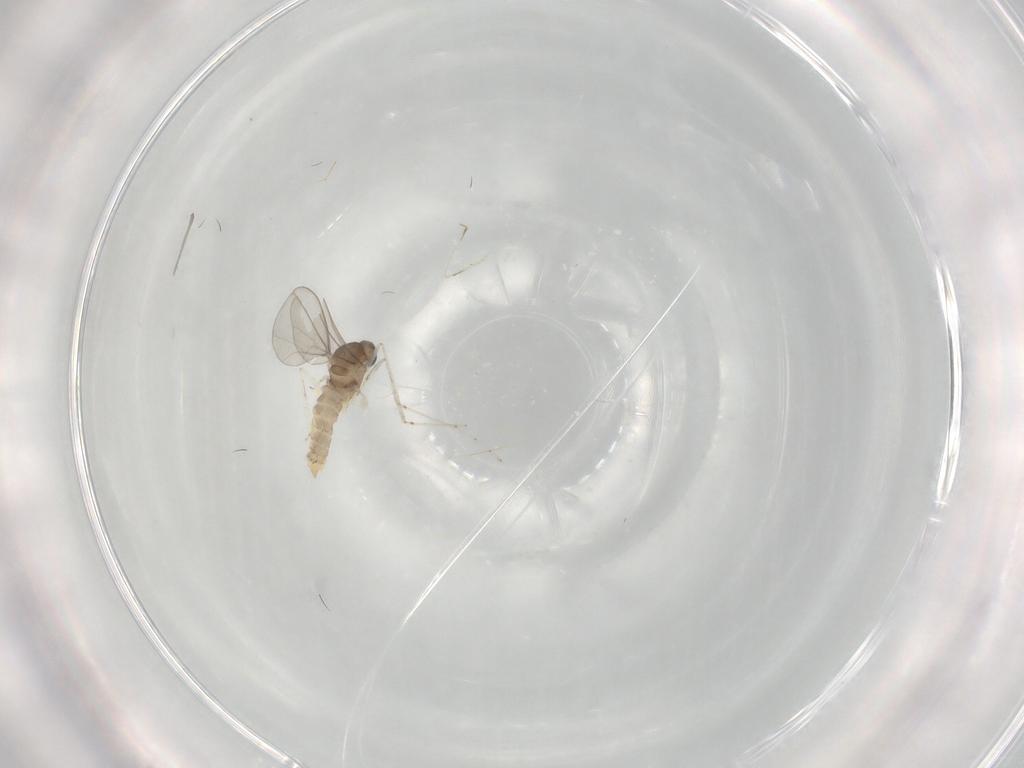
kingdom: Animalia
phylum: Arthropoda
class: Insecta
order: Diptera
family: Cecidomyiidae
